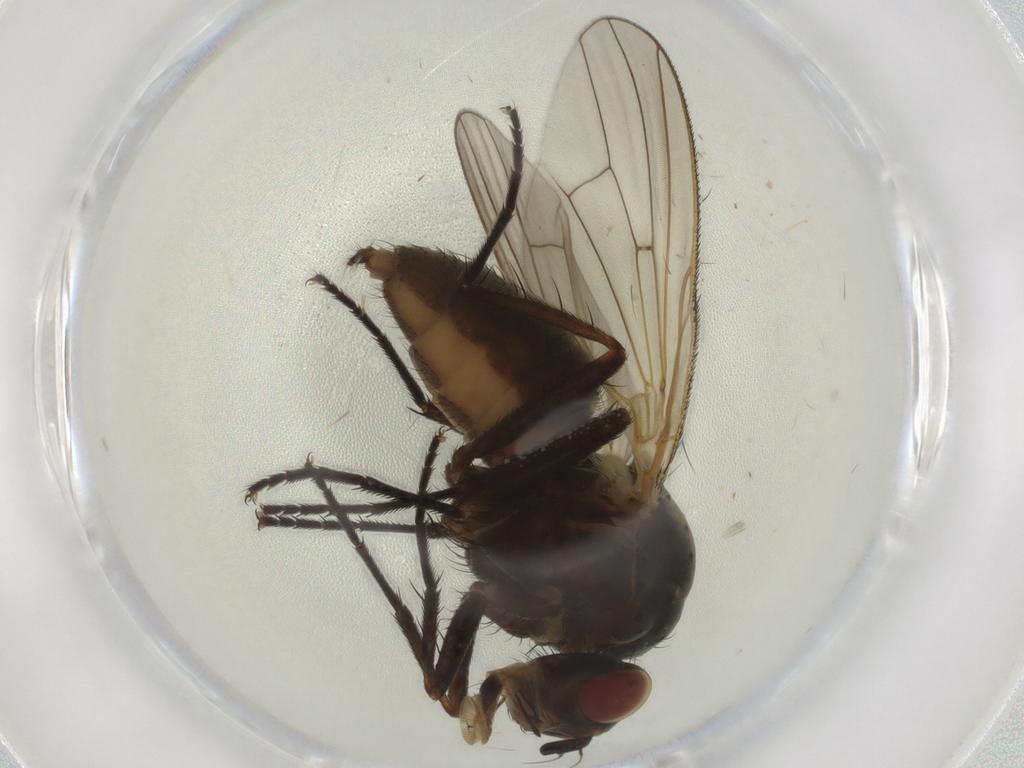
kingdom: Animalia
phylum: Arthropoda
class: Insecta
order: Diptera
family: Anthomyiidae
